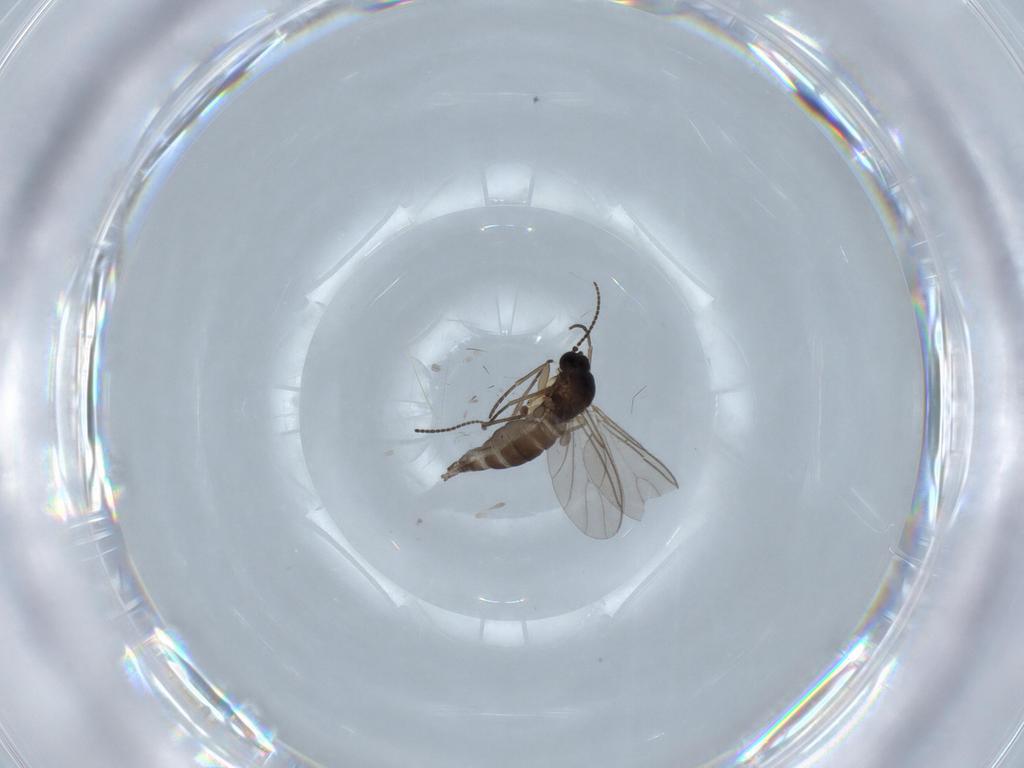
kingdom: Animalia
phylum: Arthropoda
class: Insecta
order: Diptera
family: Sciaridae
